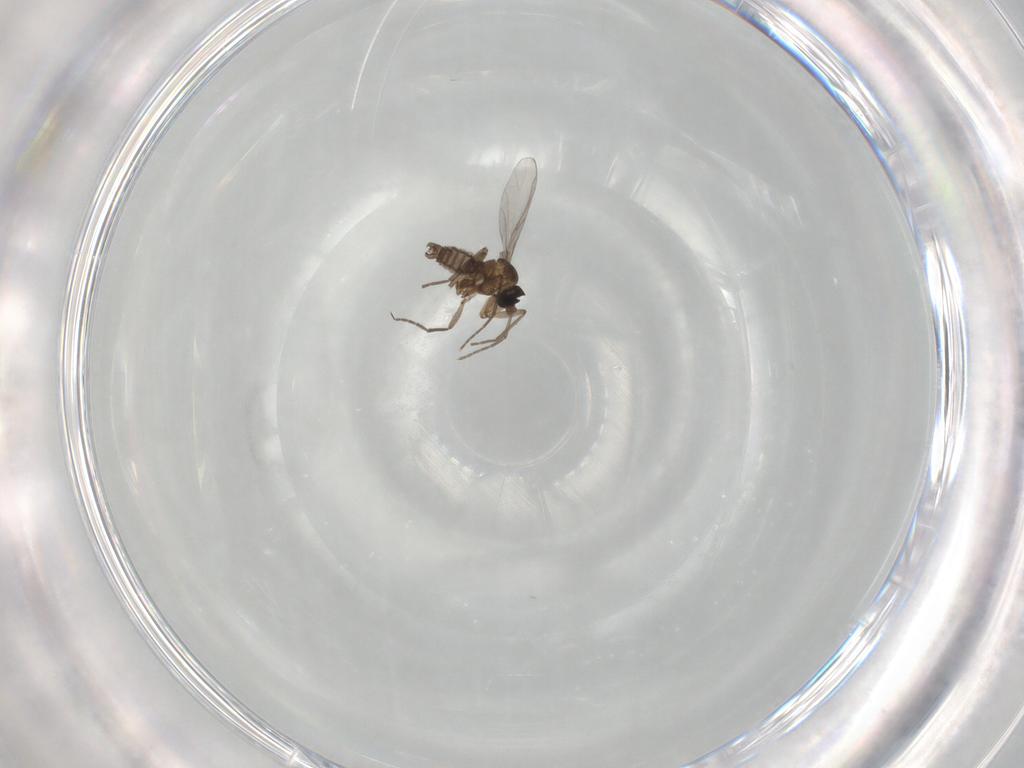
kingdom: Animalia
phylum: Arthropoda
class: Insecta
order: Diptera
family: Sciaridae
